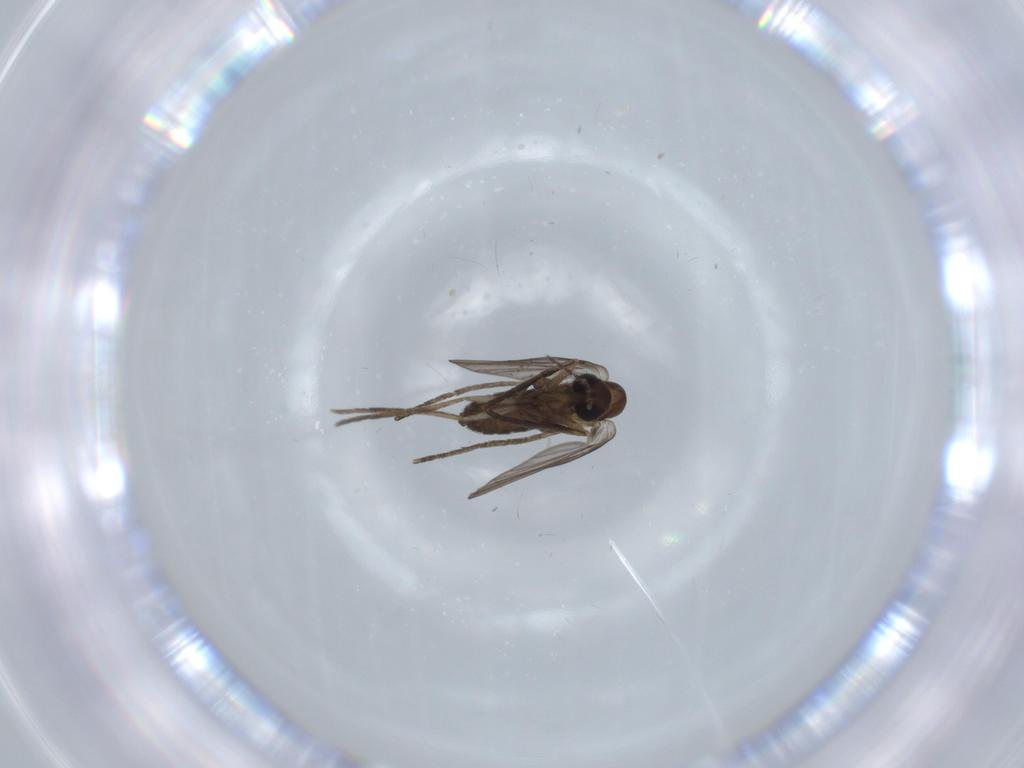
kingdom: Animalia
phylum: Arthropoda
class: Insecta
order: Diptera
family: Psychodidae
